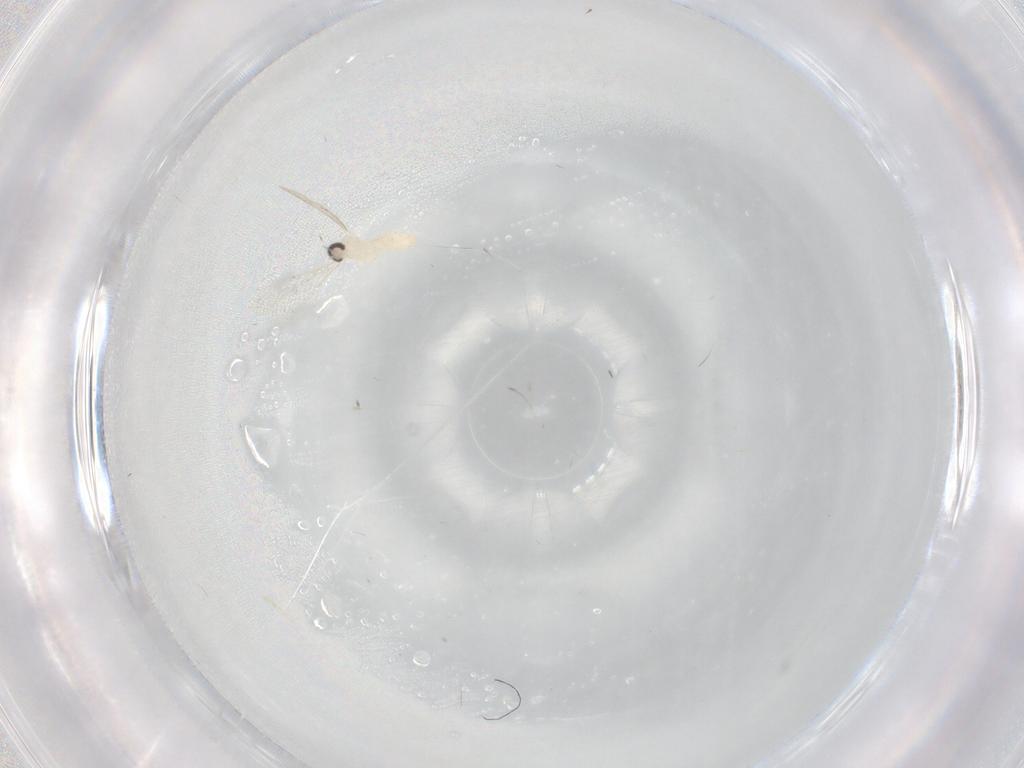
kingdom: Animalia
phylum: Arthropoda
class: Insecta
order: Diptera
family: Cecidomyiidae
